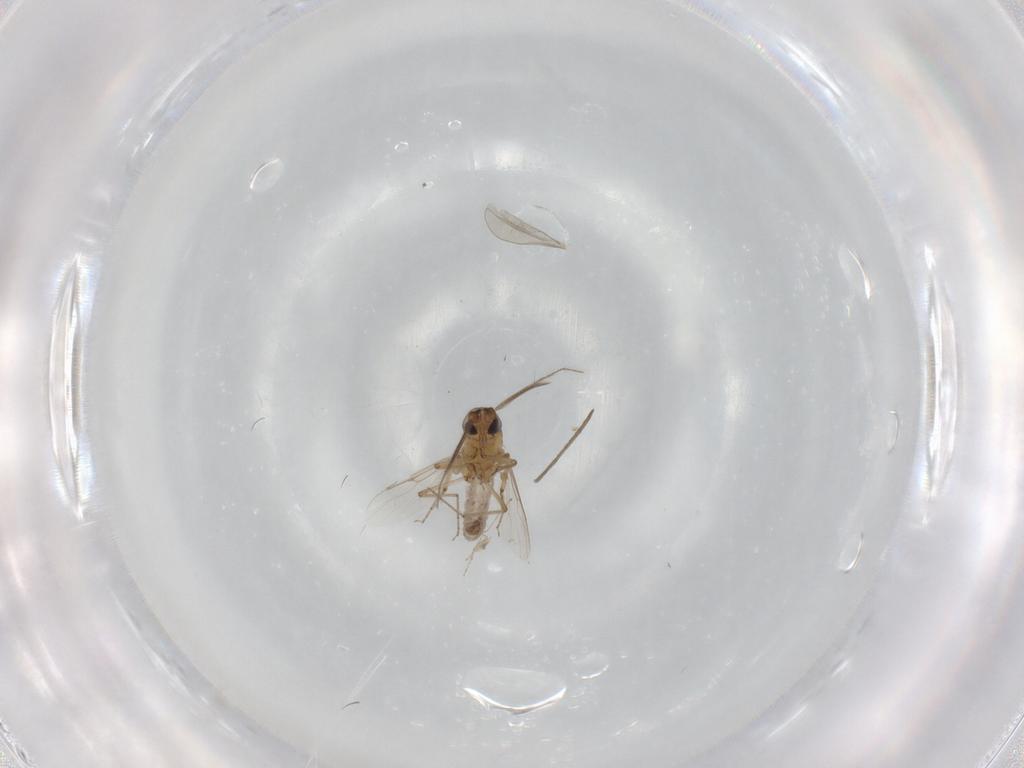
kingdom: Animalia
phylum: Arthropoda
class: Insecta
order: Diptera
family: Ceratopogonidae
